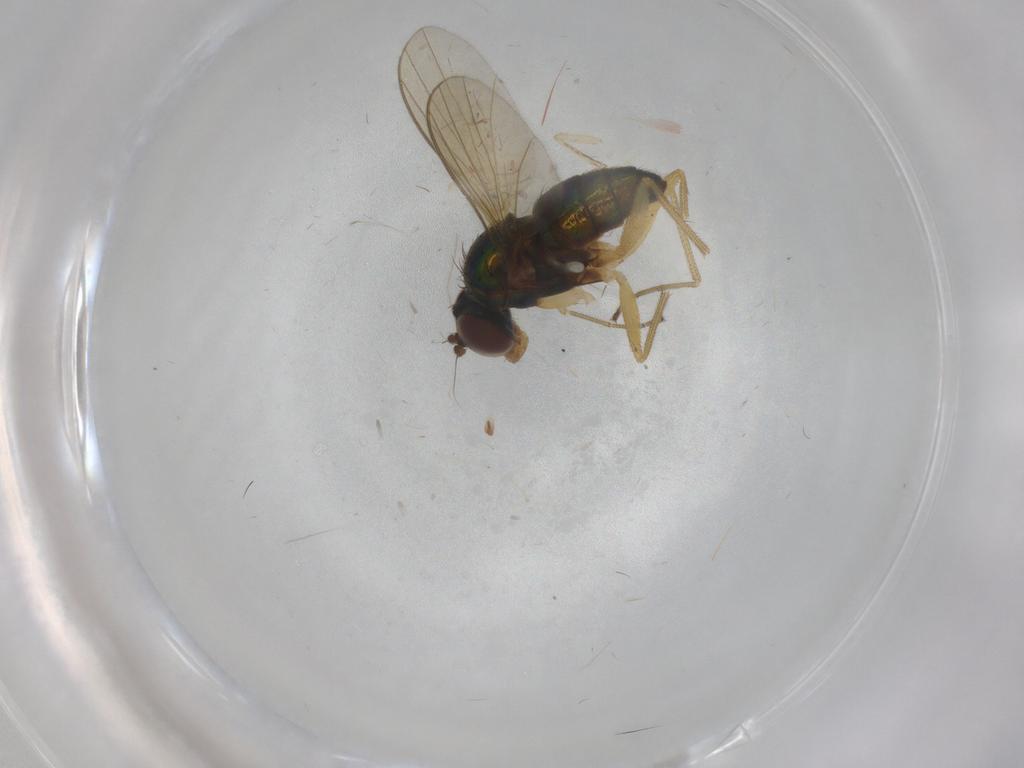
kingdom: Animalia
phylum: Arthropoda
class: Insecta
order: Diptera
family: Dolichopodidae
